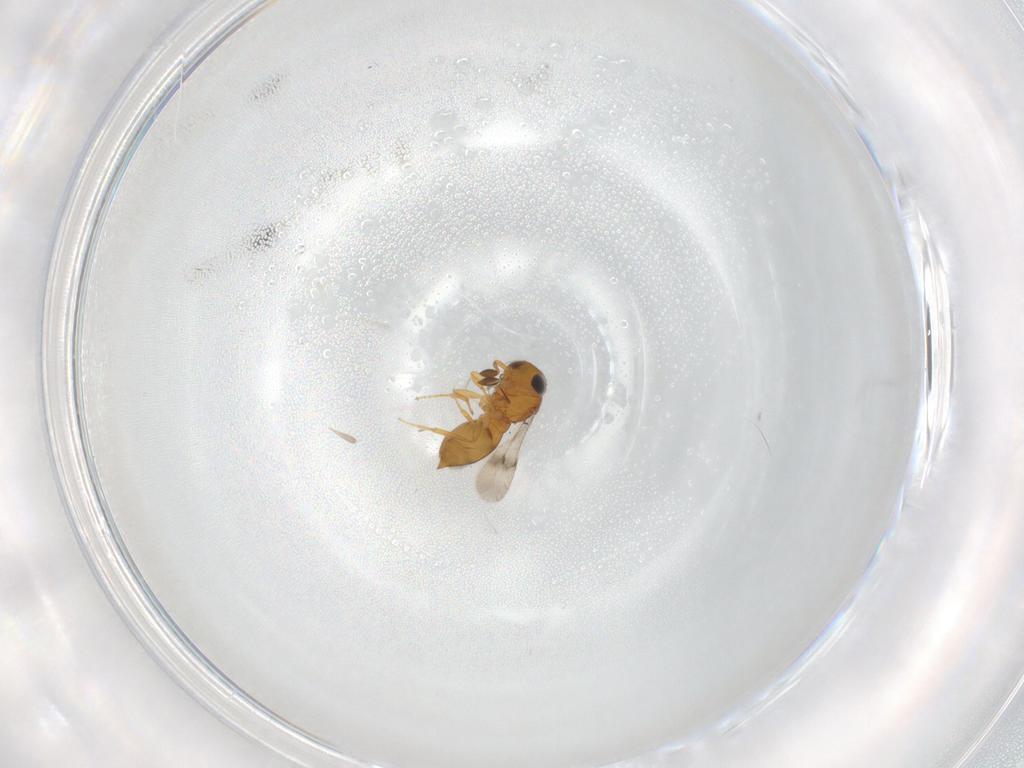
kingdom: Animalia
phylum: Arthropoda
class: Insecta
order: Hymenoptera
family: Scelionidae
